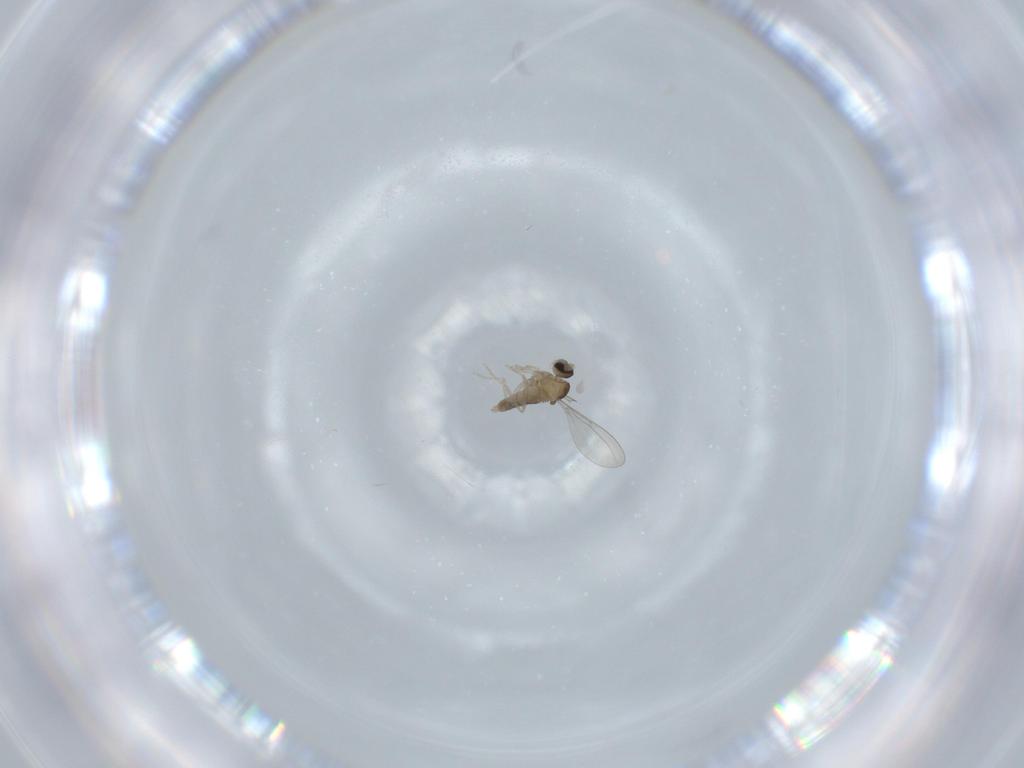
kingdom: Animalia
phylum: Arthropoda
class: Insecta
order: Diptera
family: Cecidomyiidae
